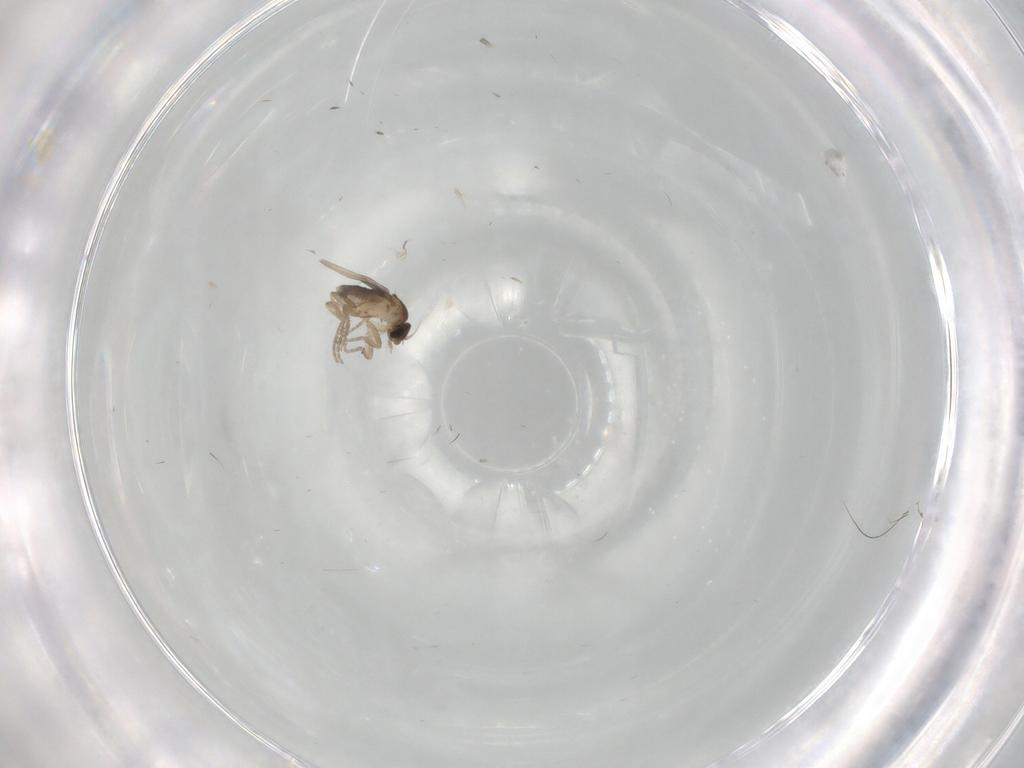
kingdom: Animalia
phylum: Arthropoda
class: Insecta
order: Diptera
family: Phoridae
